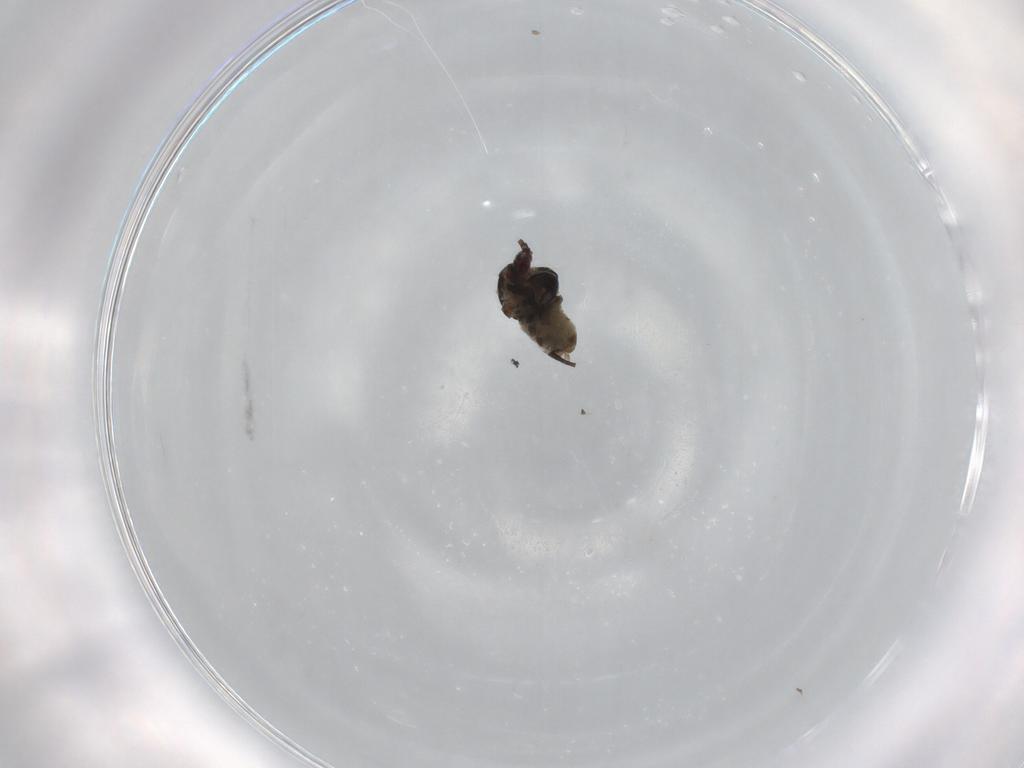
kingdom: Animalia
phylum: Arthropoda
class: Insecta
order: Hemiptera
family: Aphididae
